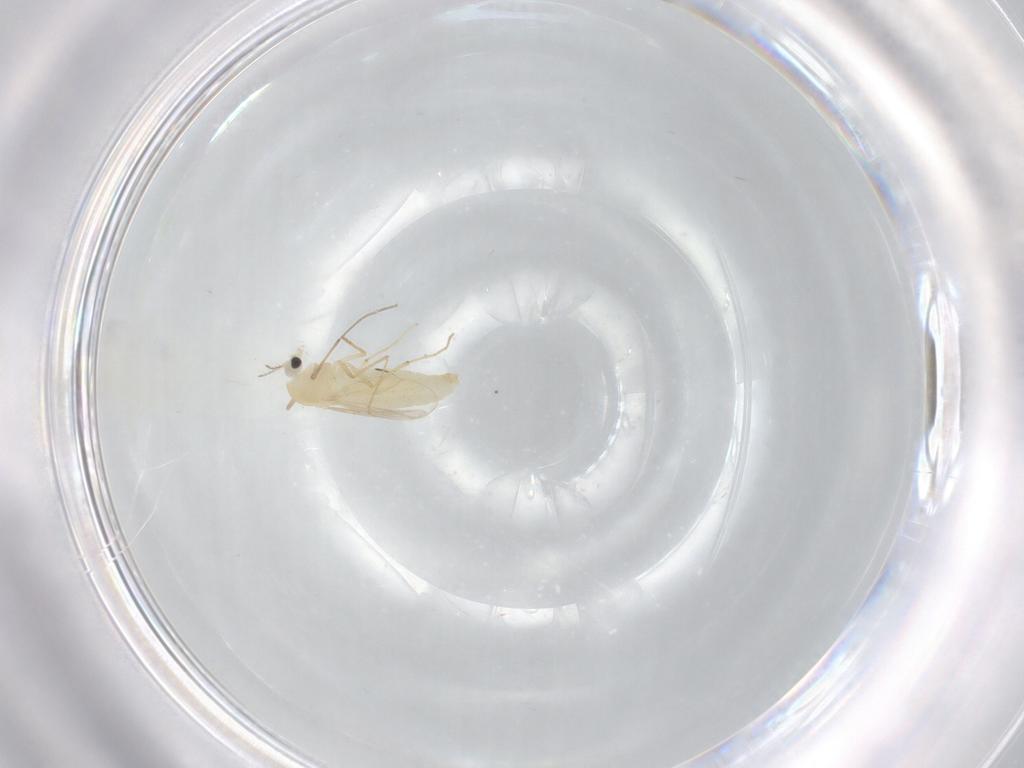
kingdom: Animalia
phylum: Arthropoda
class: Insecta
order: Diptera
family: Chironomidae
